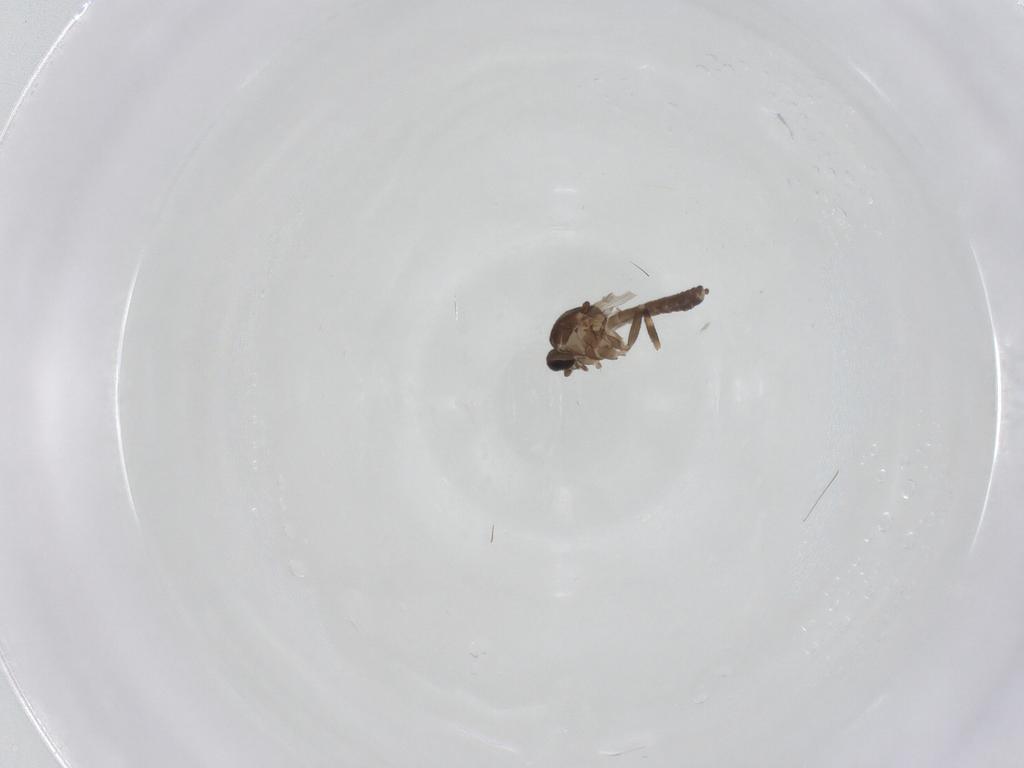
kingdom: Animalia
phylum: Arthropoda
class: Insecta
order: Diptera
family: Ceratopogonidae
